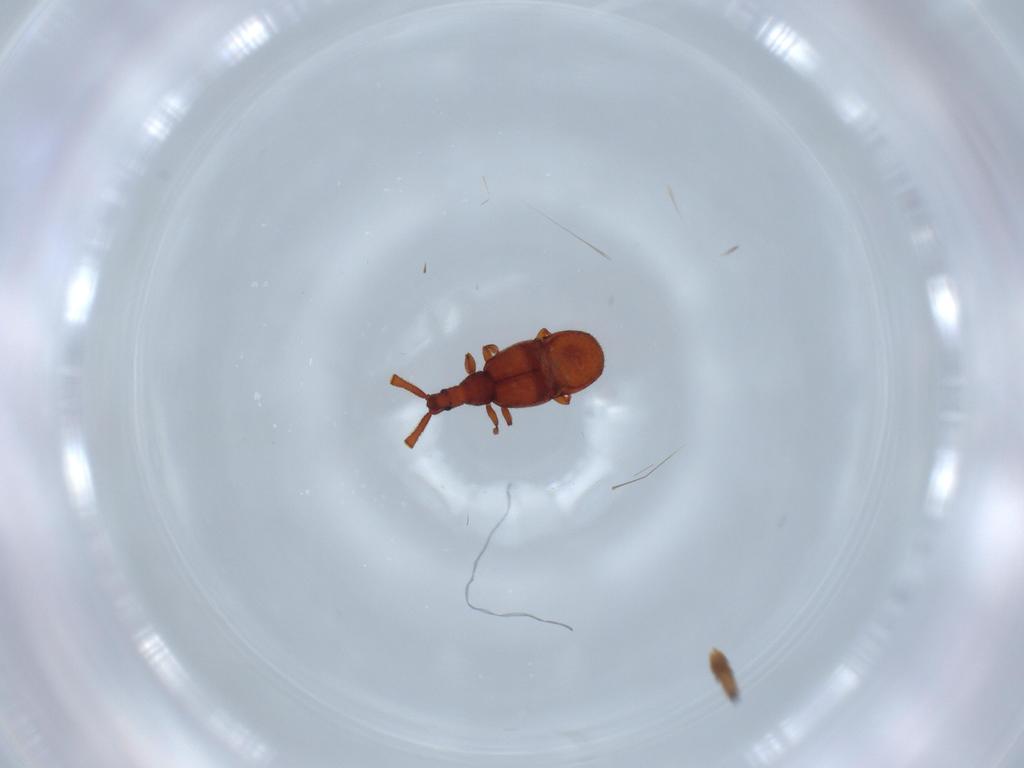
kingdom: Animalia
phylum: Arthropoda
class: Insecta
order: Coleoptera
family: Staphylinidae
